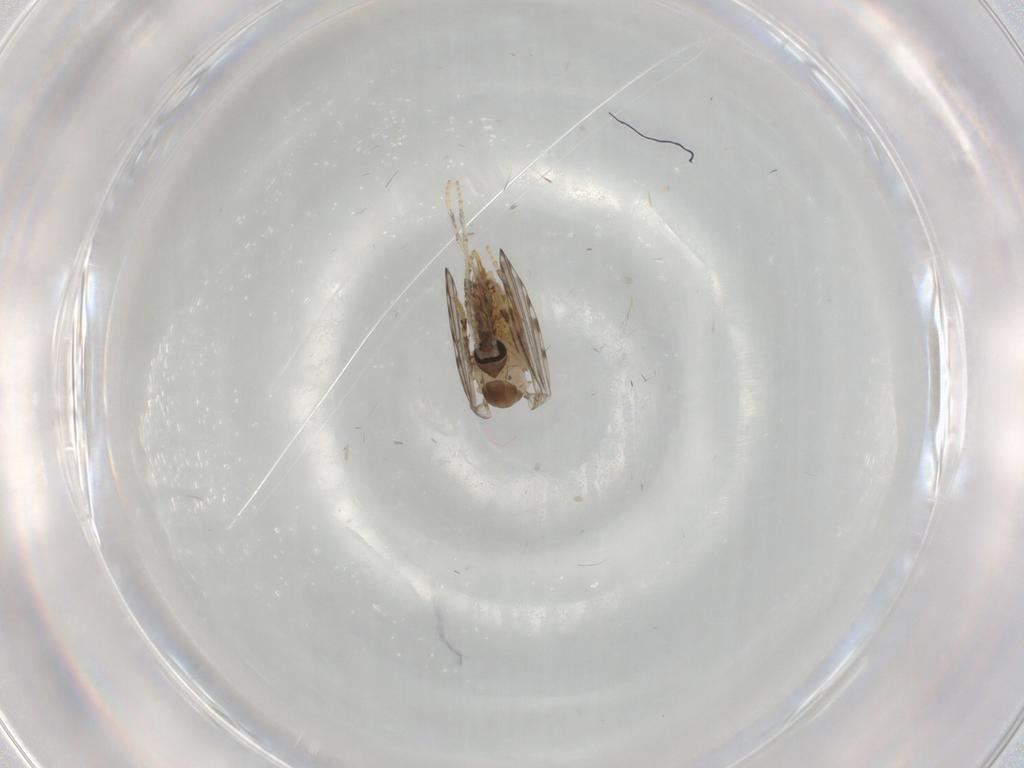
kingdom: Animalia
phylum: Arthropoda
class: Insecta
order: Diptera
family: Psychodidae
